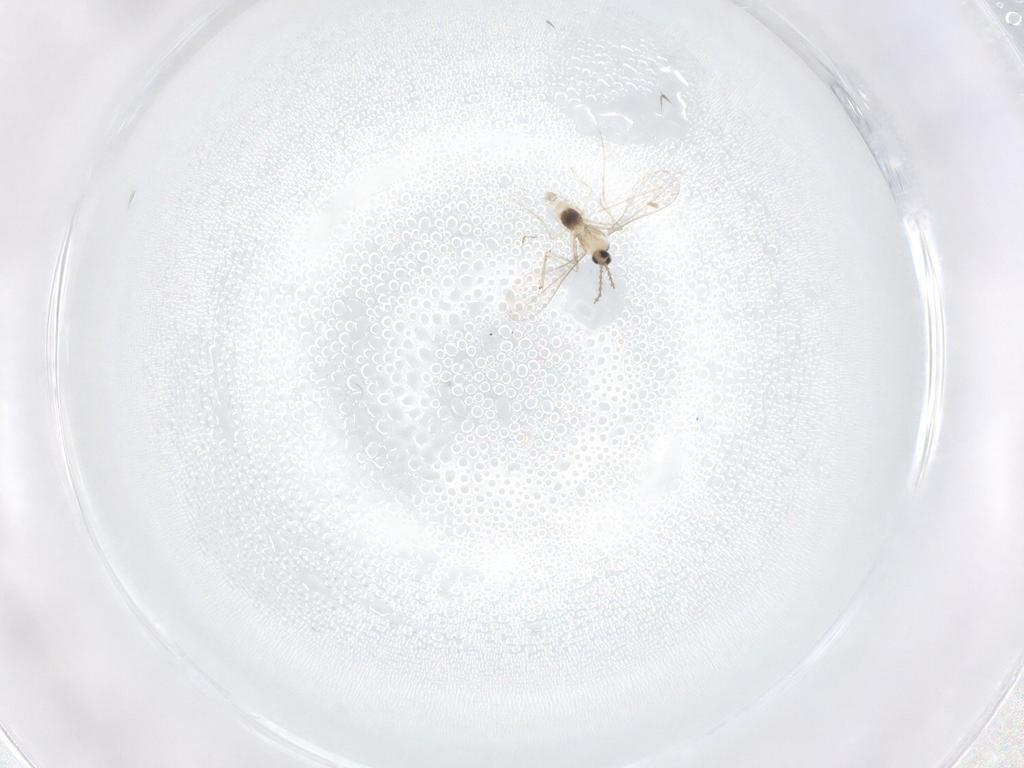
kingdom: Animalia
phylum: Arthropoda
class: Insecta
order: Diptera
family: Cecidomyiidae
